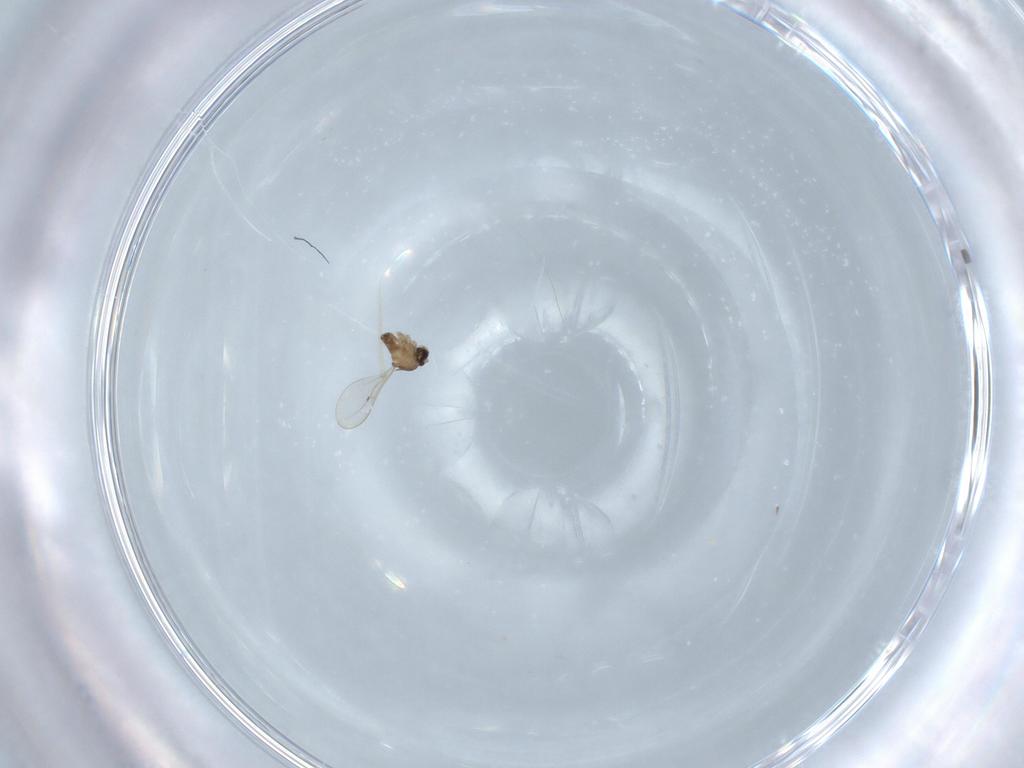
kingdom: Animalia
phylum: Arthropoda
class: Insecta
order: Diptera
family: Cecidomyiidae
